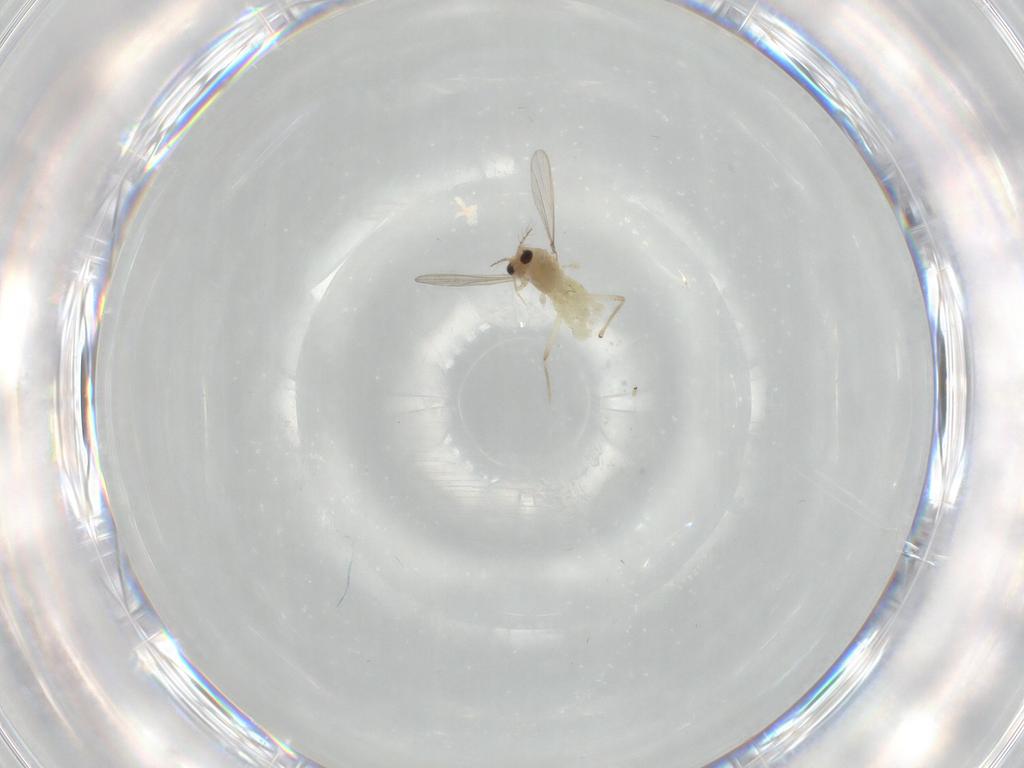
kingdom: Animalia
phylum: Arthropoda
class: Insecta
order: Diptera
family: Chironomidae
